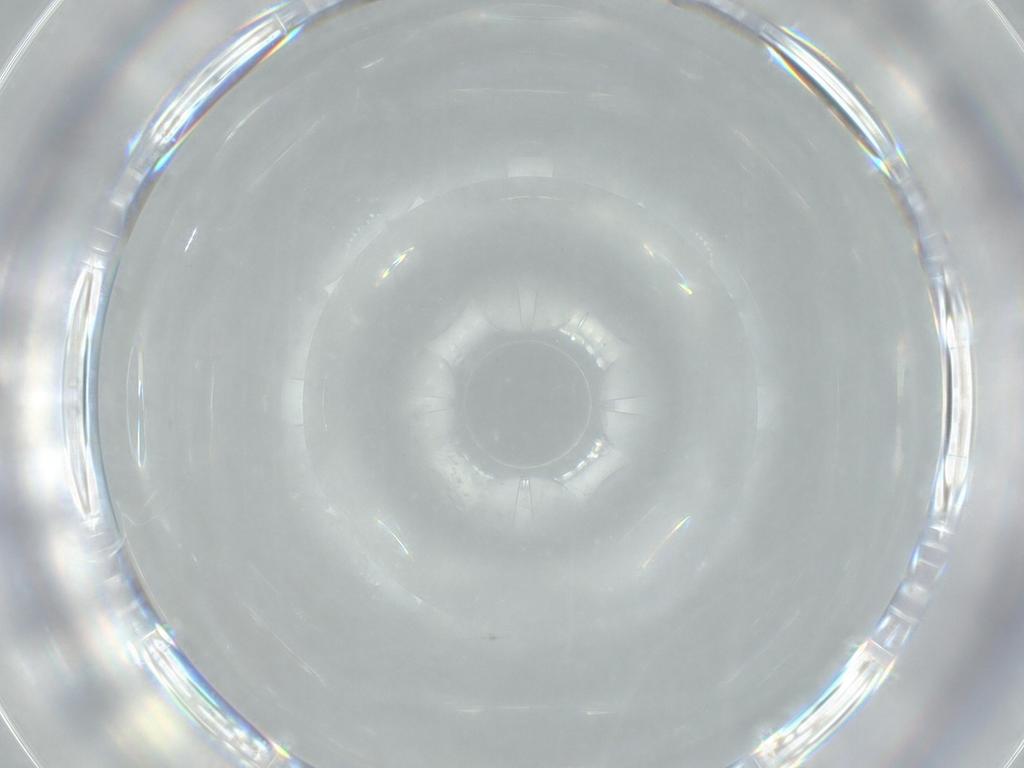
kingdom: Animalia
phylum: Arthropoda
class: Insecta
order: Diptera
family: Cecidomyiidae
